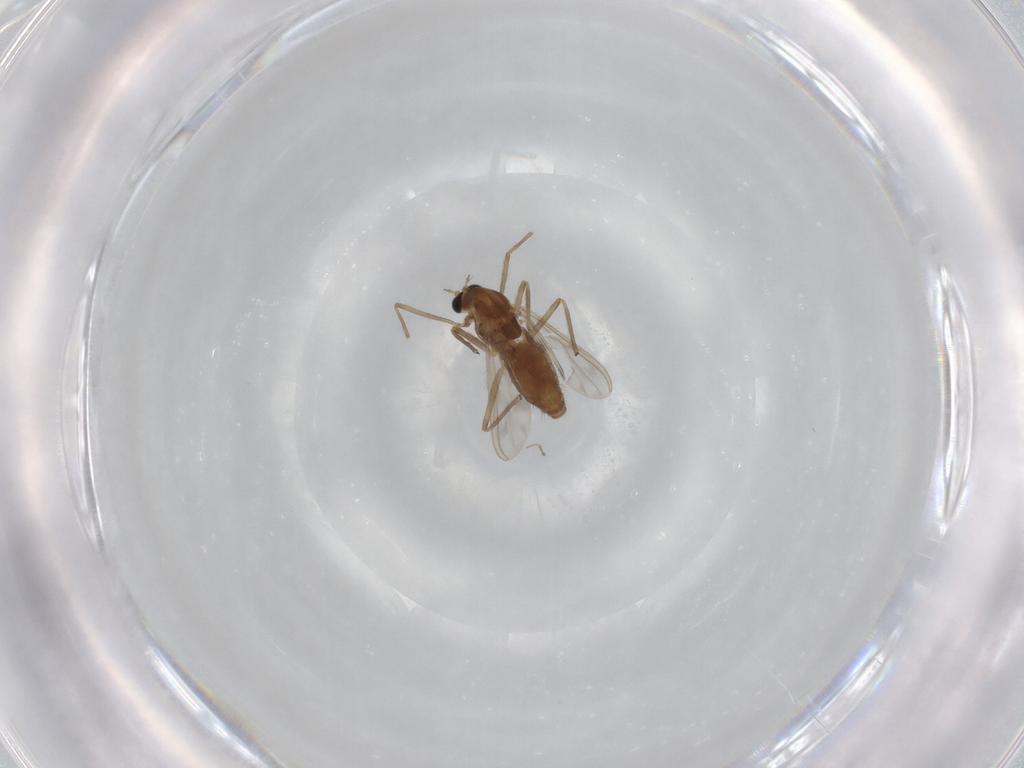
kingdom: Animalia
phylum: Arthropoda
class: Insecta
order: Diptera
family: Chironomidae
